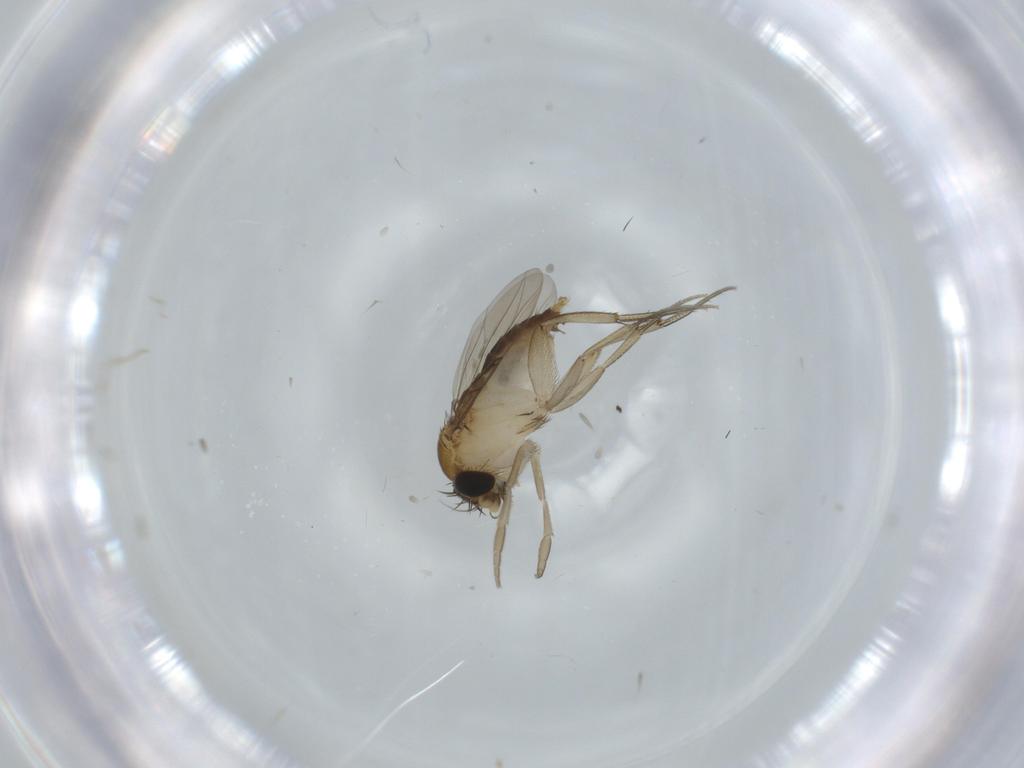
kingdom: Animalia
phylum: Arthropoda
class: Insecta
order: Diptera
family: Phoridae
